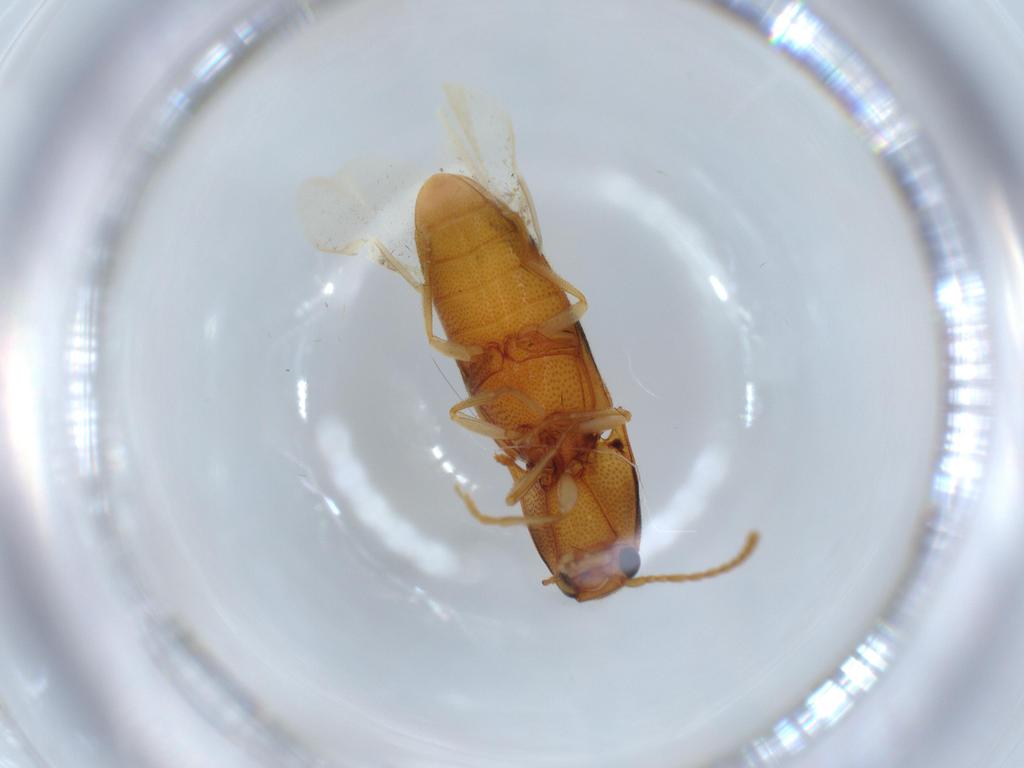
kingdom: Animalia
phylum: Arthropoda
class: Insecta
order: Coleoptera
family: Elateridae
